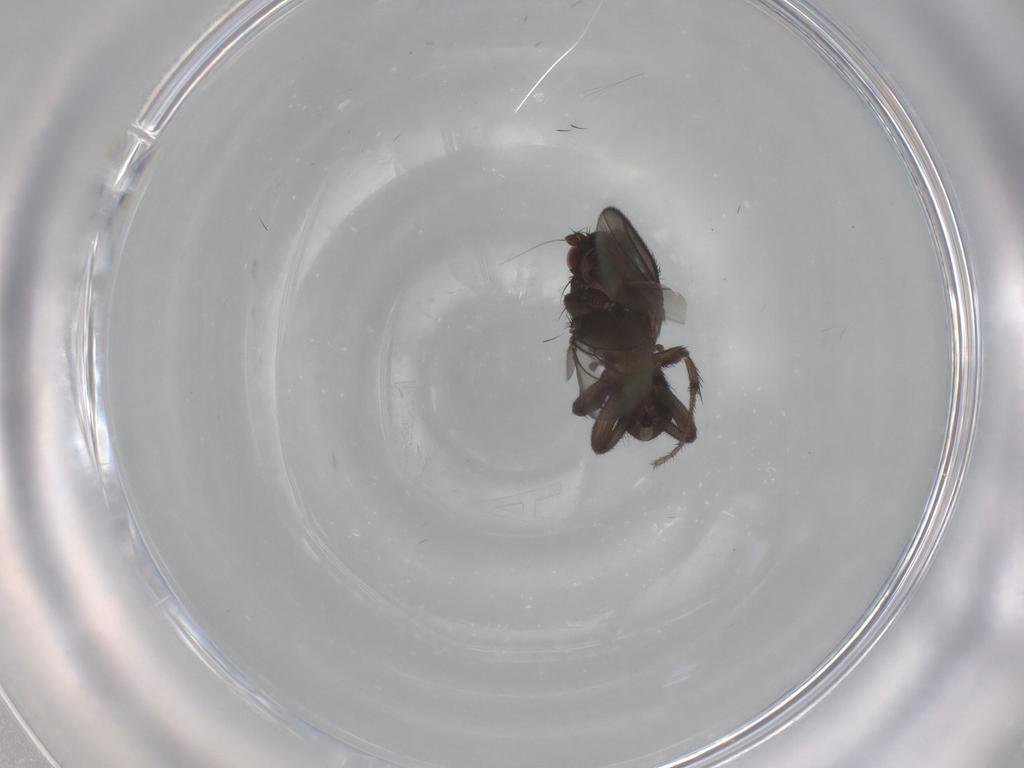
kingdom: Animalia
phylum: Arthropoda
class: Insecta
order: Diptera
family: Sphaeroceridae
